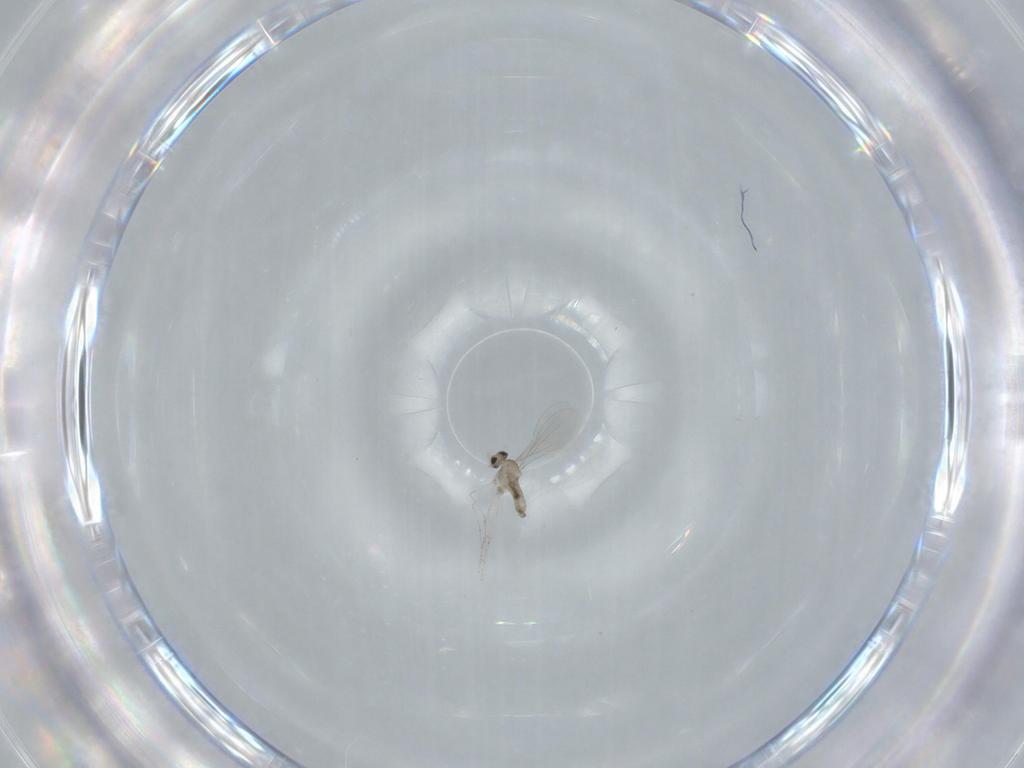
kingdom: Animalia
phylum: Arthropoda
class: Insecta
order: Diptera
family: Cecidomyiidae
